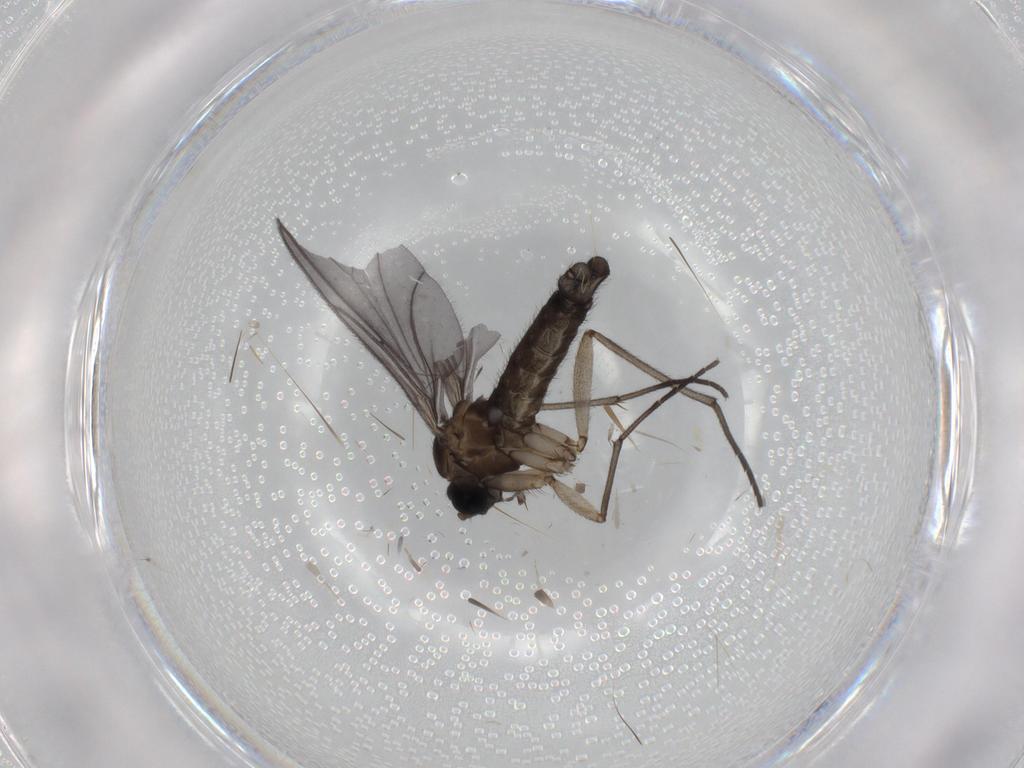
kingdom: Animalia
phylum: Arthropoda
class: Insecta
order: Diptera
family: Sciaridae
